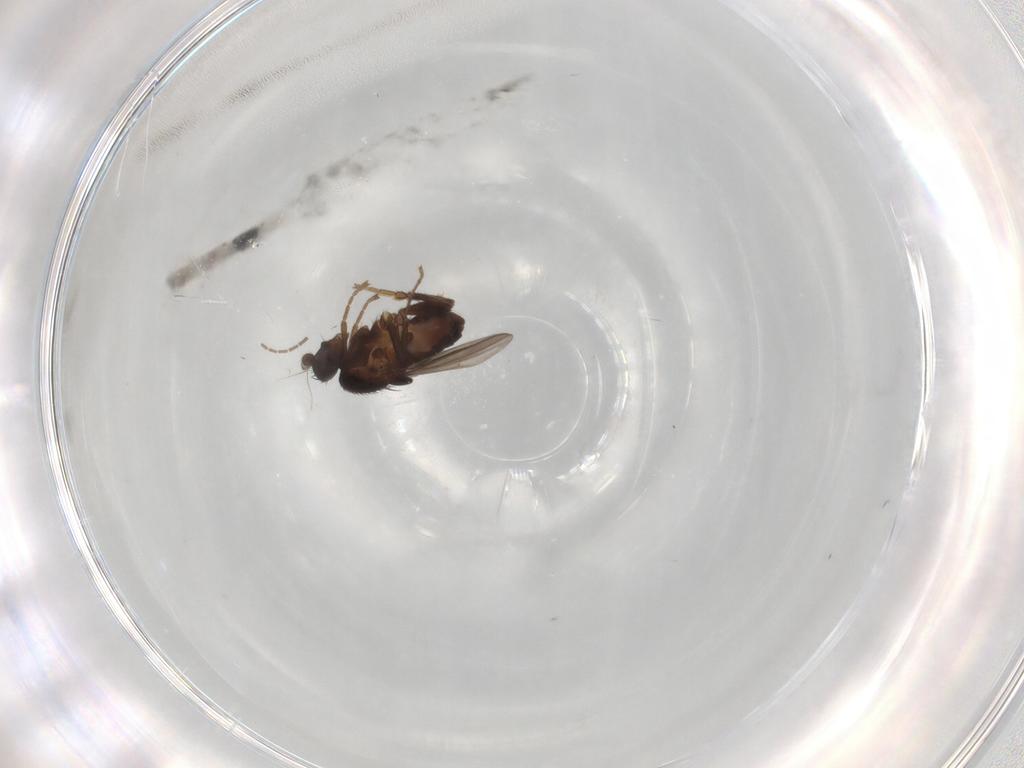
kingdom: Animalia
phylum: Arthropoda
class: Insecta
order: Diptera
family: Sphaeroceridae
